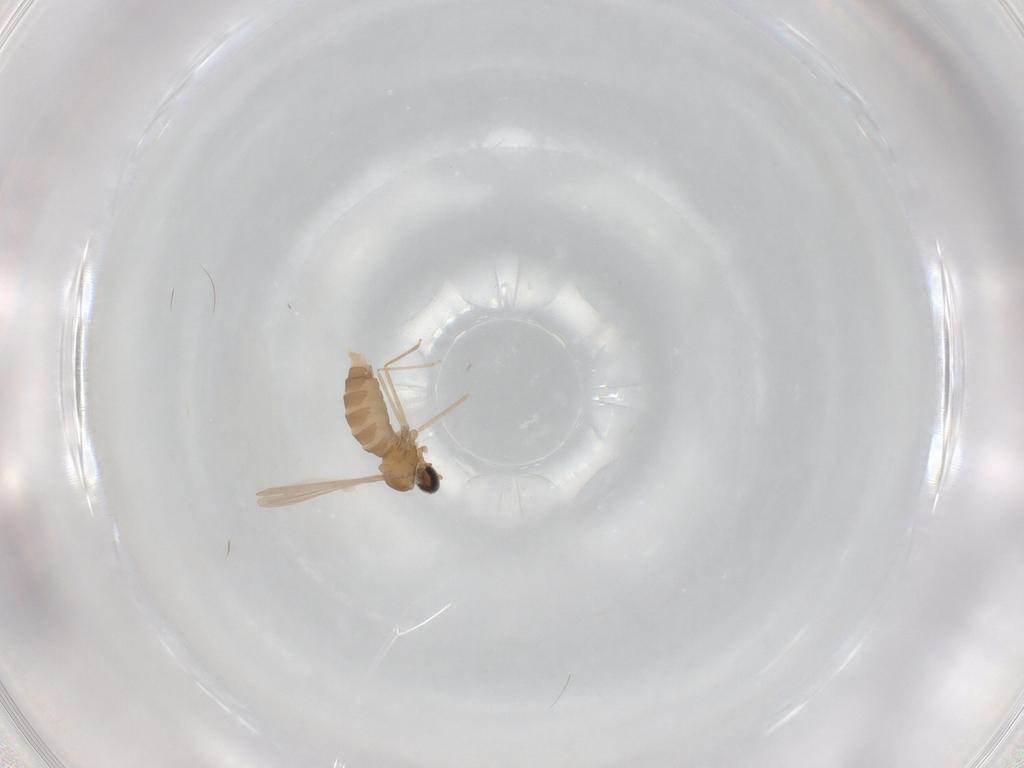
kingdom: Animalia
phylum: Arthropoda
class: Insecta
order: Diptera
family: Cecidomyiidae
